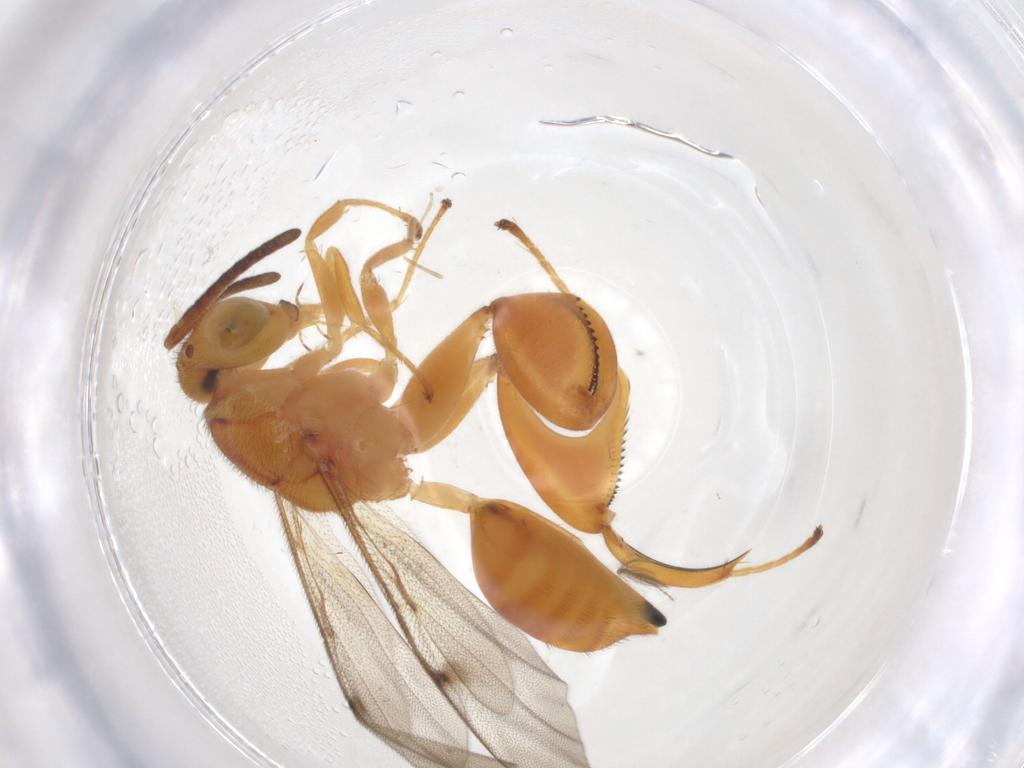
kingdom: Animalia
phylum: Arthropoda
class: Insecta
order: Hymenoptera
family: Chalcididae
